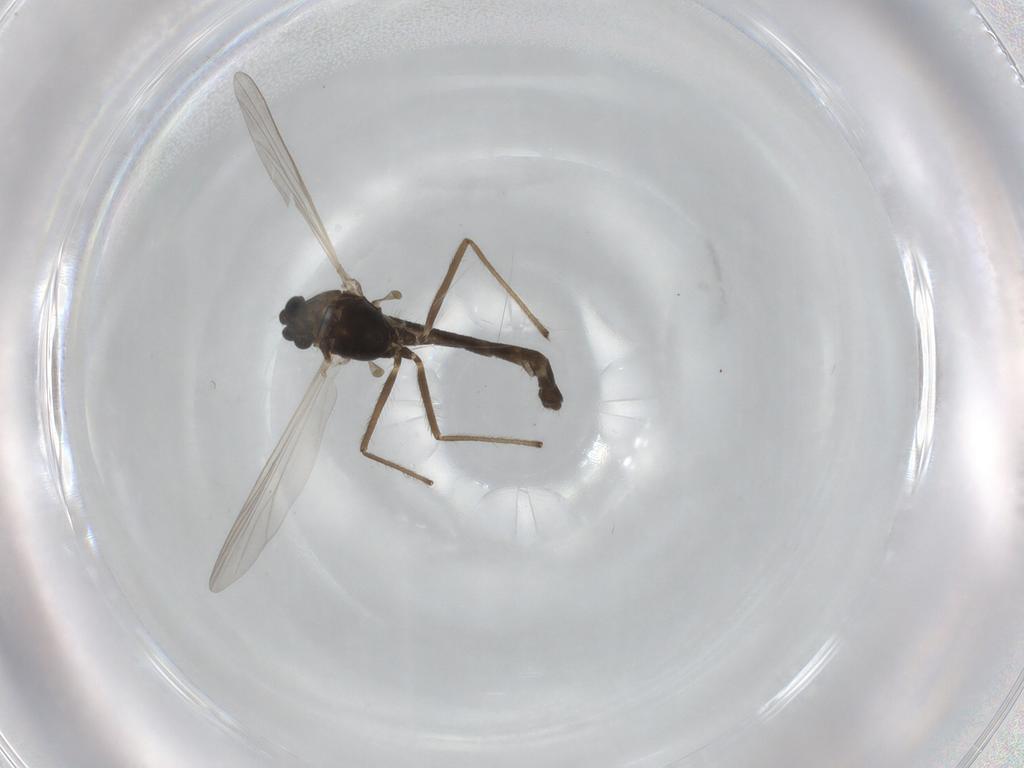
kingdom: Animalia
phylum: Arthropoda
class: Insecta
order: Diptera
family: Chironomidae
